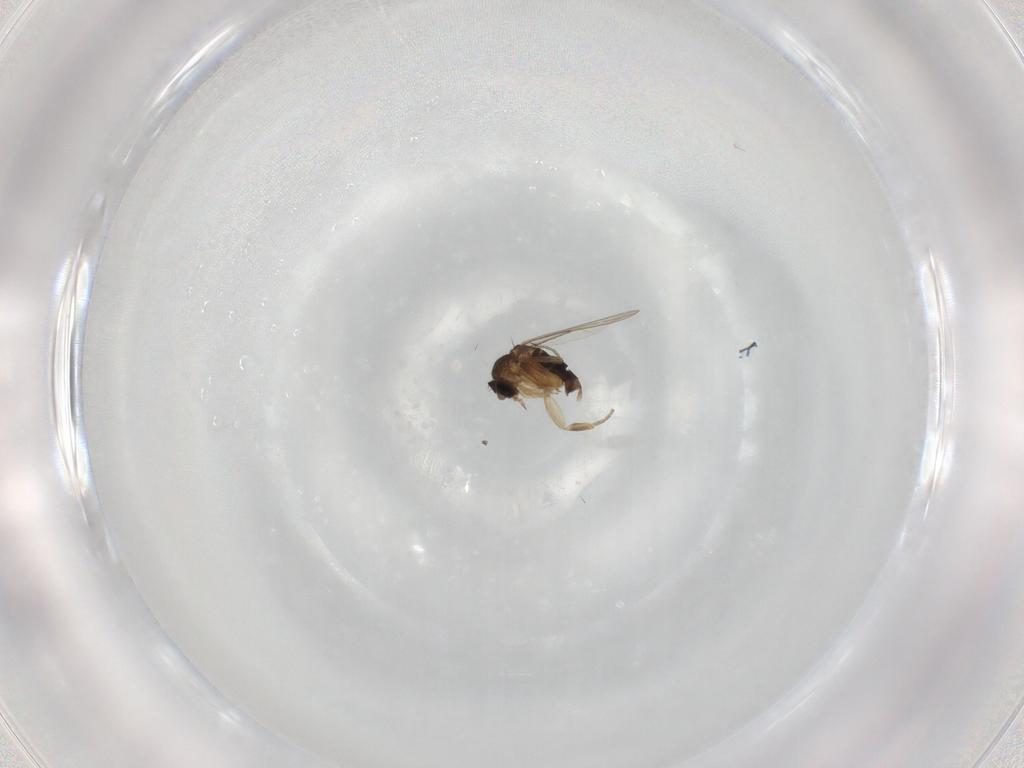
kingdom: Animalia
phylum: Arthropoda
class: Insecta
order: Diptera
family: Phoridae
